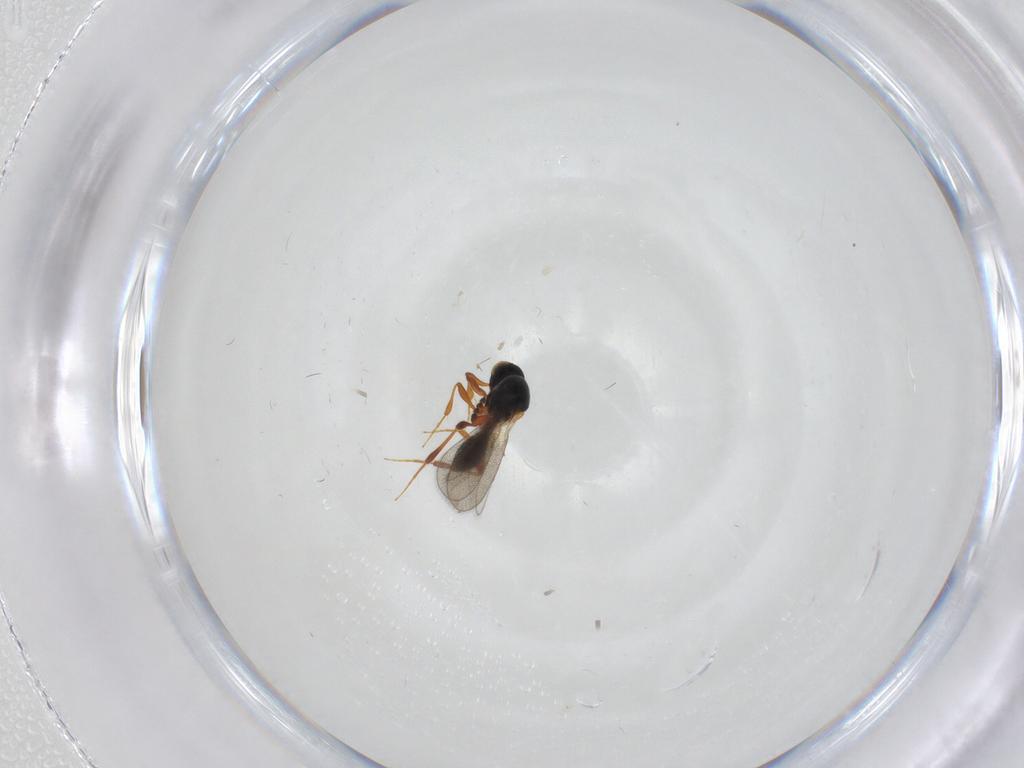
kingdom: Animalia
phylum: Arthropoda
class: Insecta
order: Hymenoptera
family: Platygastridae
